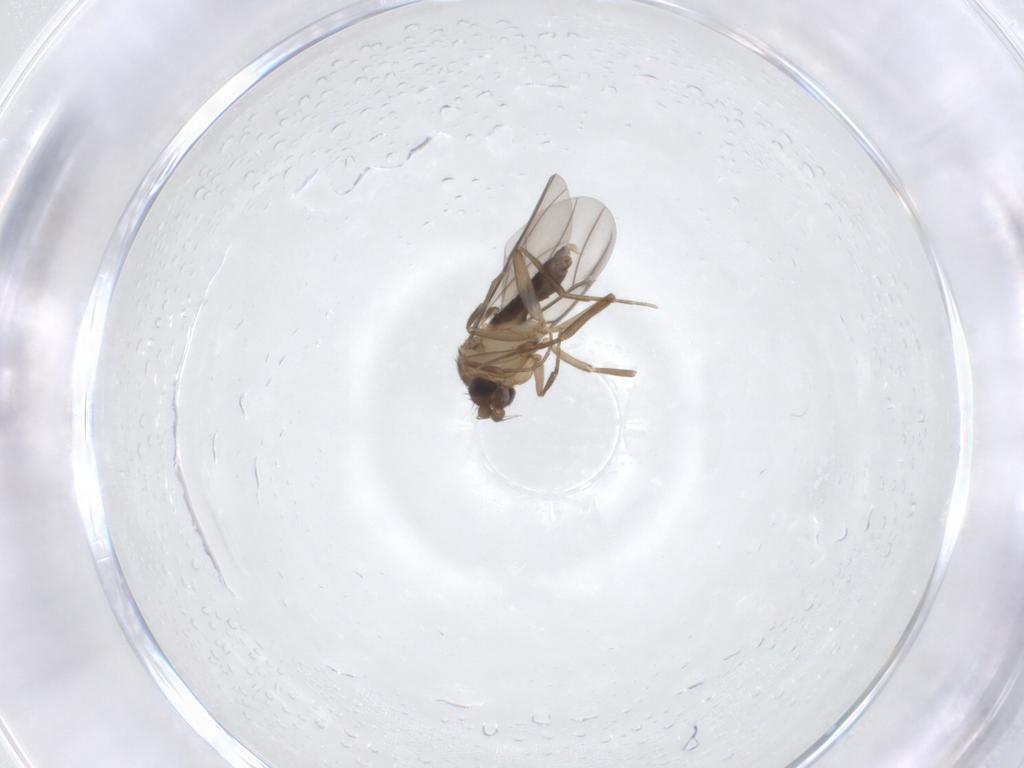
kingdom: Animalia
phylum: Arthropoda
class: Insecta
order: Diptera
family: Phoridae
